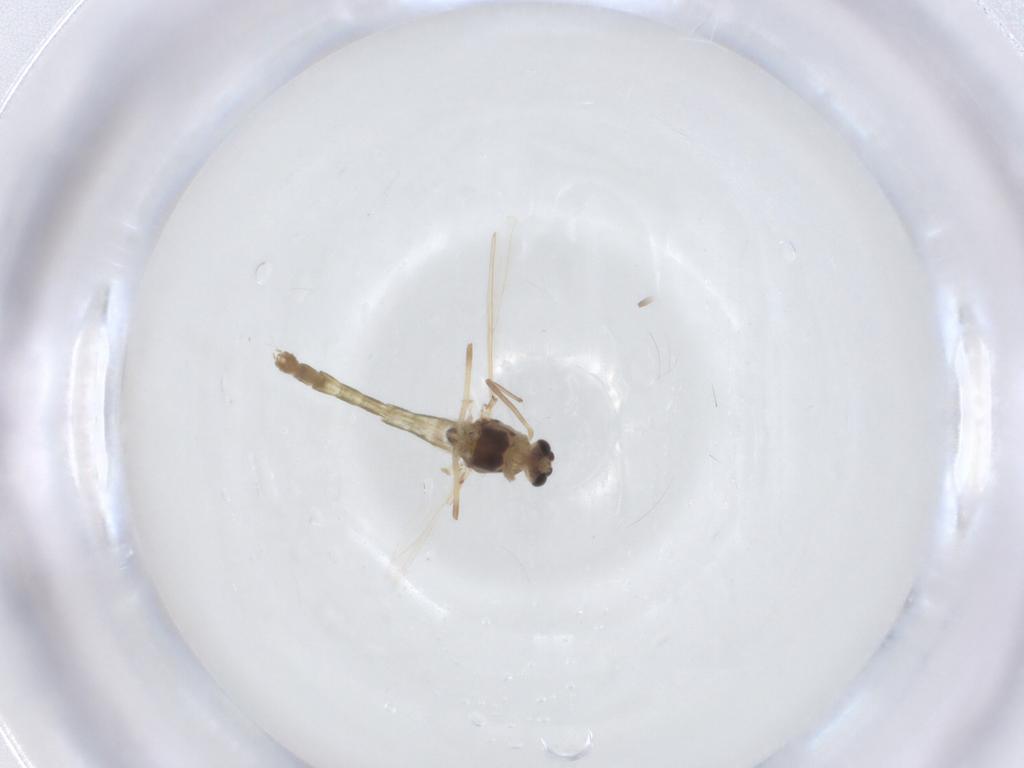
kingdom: Animalia
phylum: Arthropoda
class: Insecta
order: Diptera
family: Chironomidae
